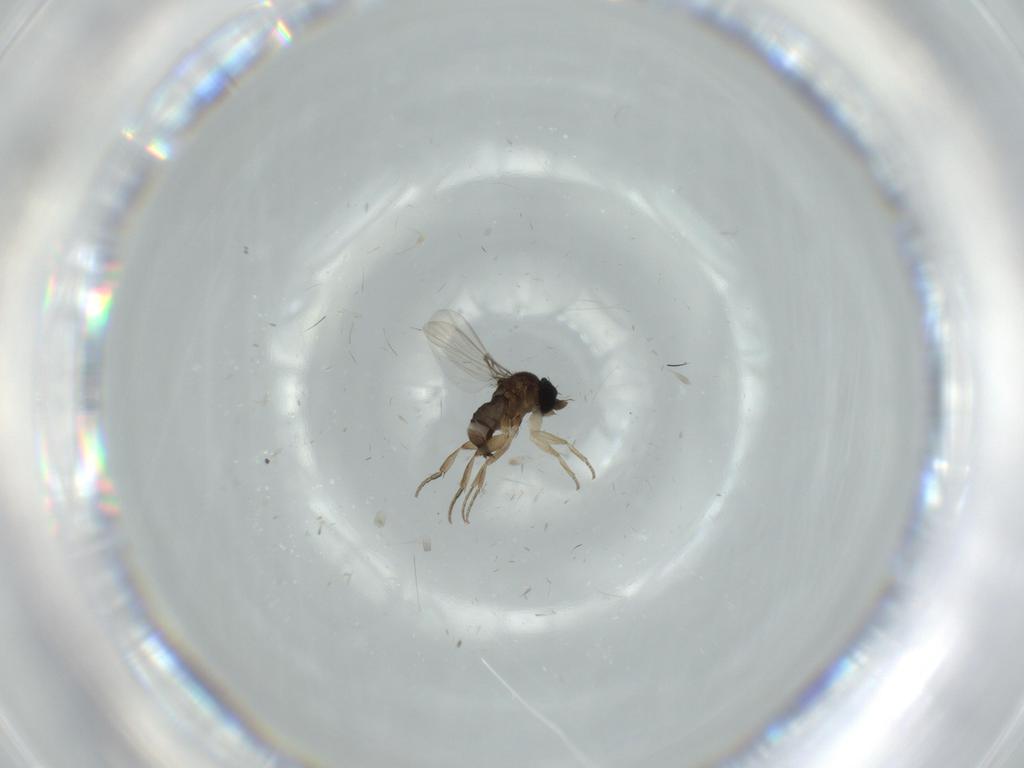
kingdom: Animalia
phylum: Arthropoda
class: Insecta
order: Diptera
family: Phoridae
